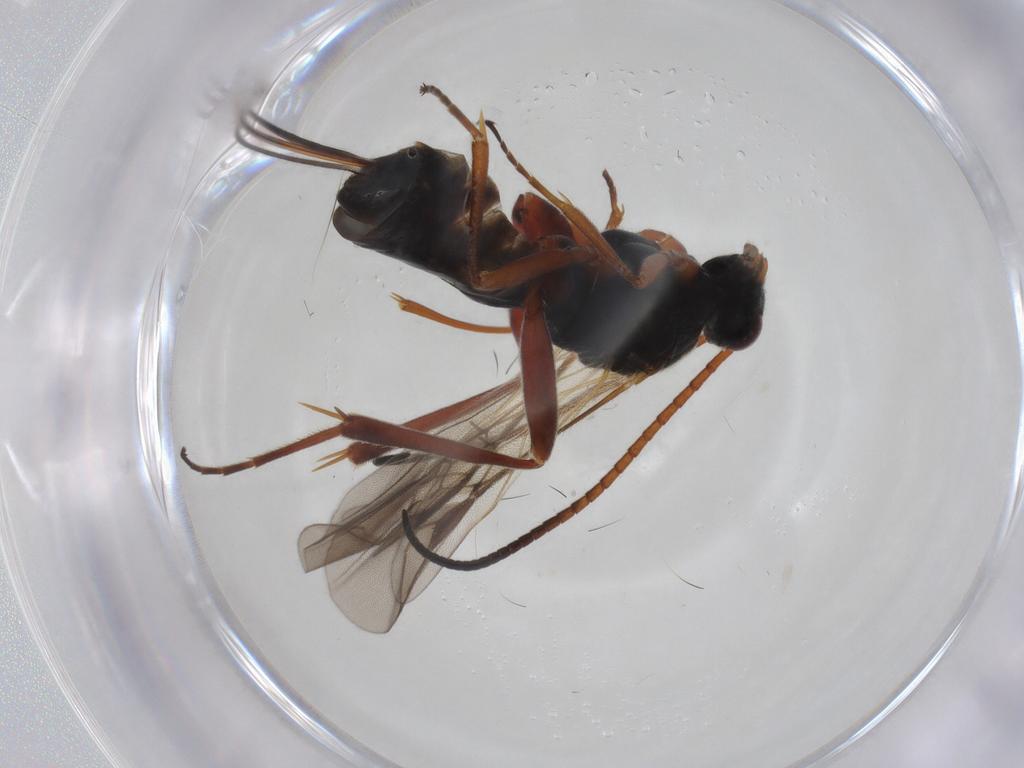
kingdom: Animalia
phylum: Arthropoda
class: Insecta
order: Hymenoptera
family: Braconidae
